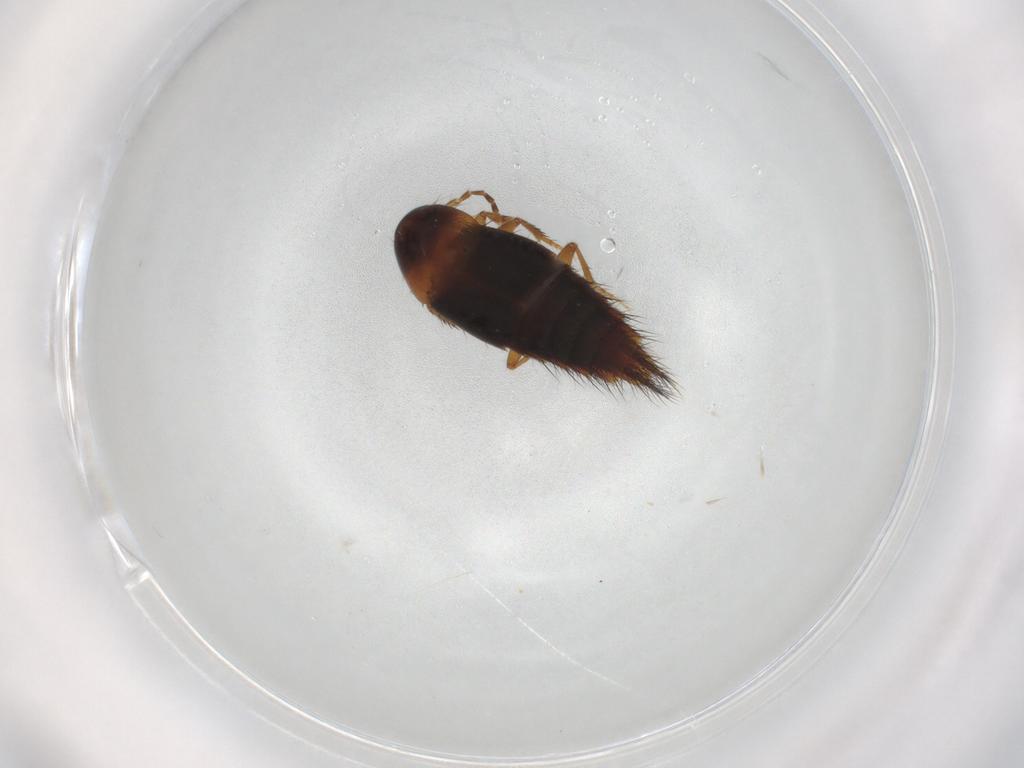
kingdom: Animalia
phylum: Arthropoda
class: Insecta
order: Coleoptera
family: Staphylinidae
